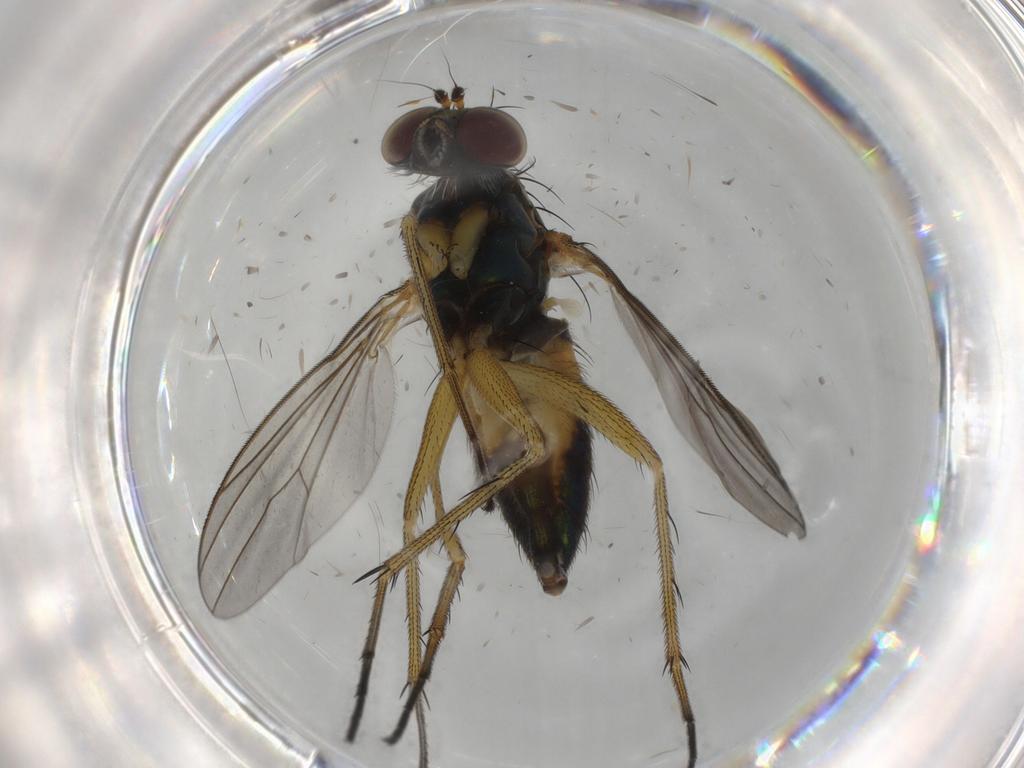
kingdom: Animalia
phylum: Arthropoda
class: Insecta
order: Diptera
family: Dolichopodidae
